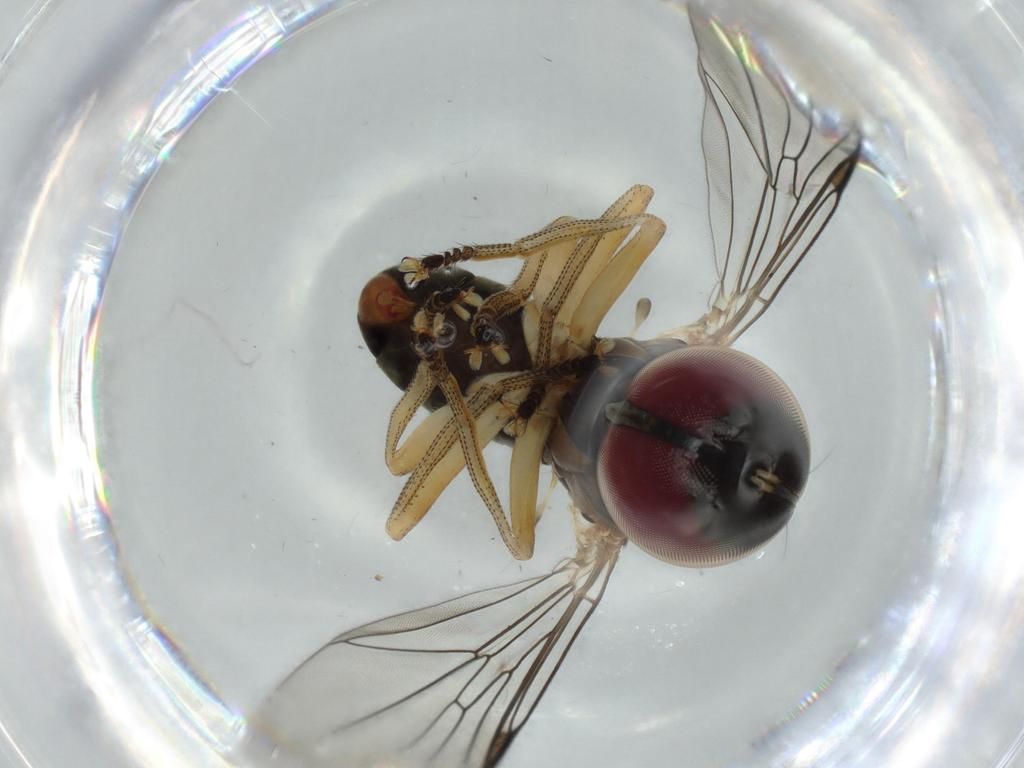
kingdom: Animalia
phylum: Arthropoda
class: Insecta
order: Diptera
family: Pipunculidae
